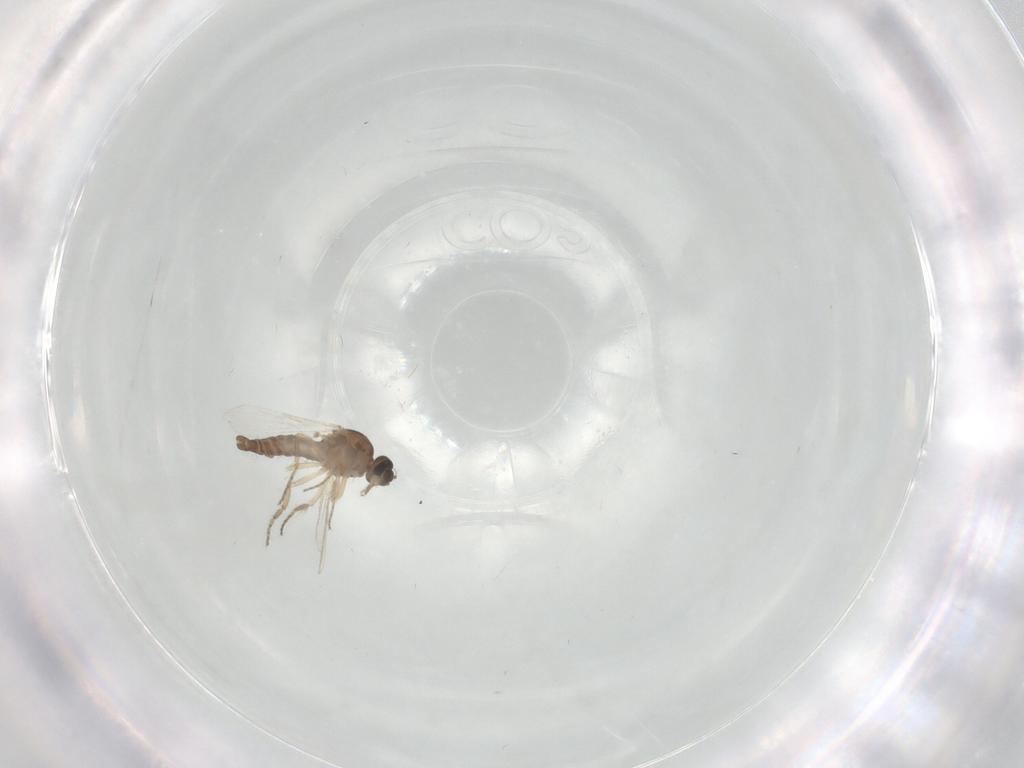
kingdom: Animalia
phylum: Arthropoda
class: Insecta
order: Diptera
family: Ceratopogonidae
